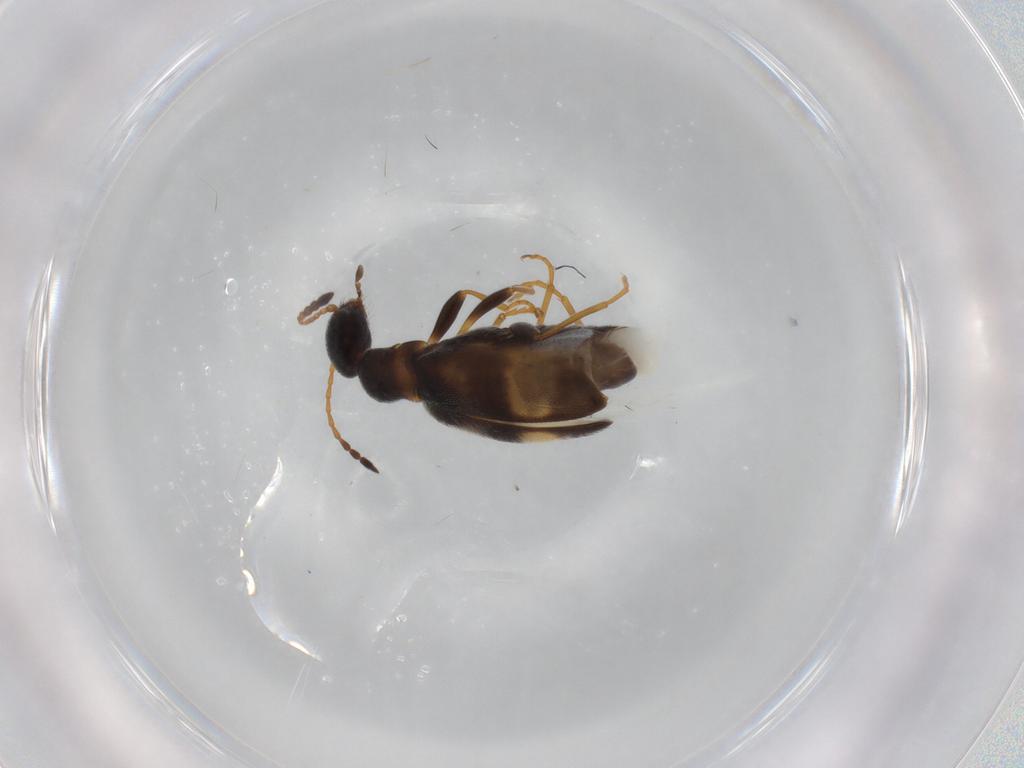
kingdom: Animalia
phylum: Arthropoda
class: Insecta
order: Coleoptera
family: Anthicidae
